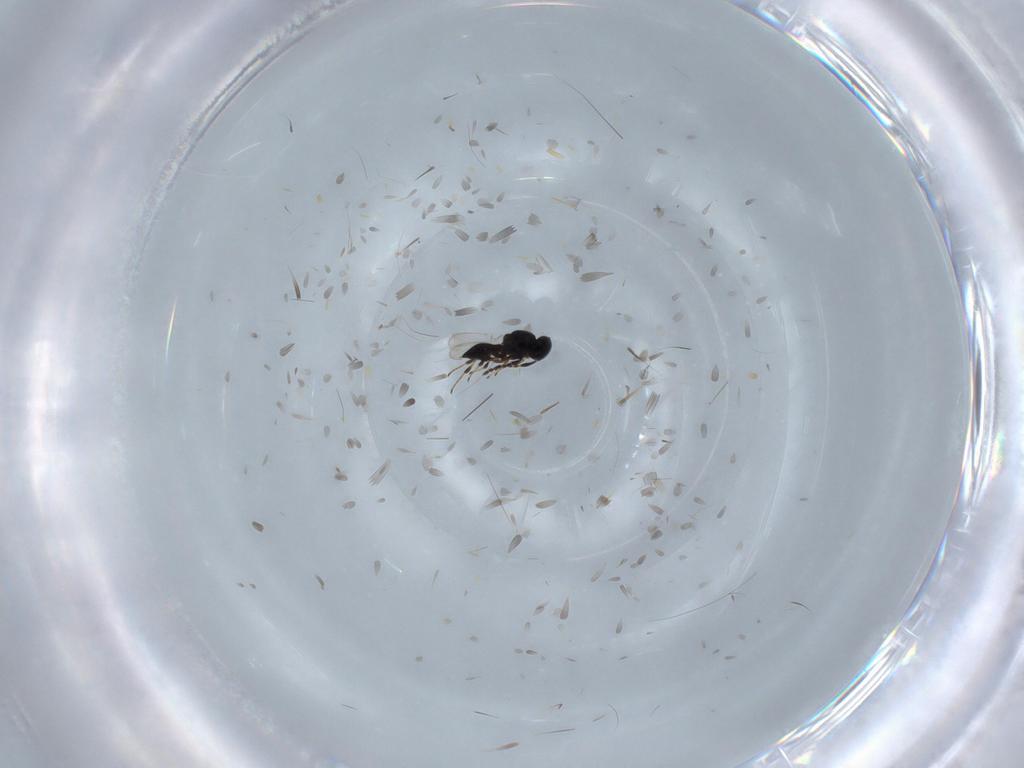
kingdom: Animalia
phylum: Arthropoda
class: Insecta
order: Hymenoptera
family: Platygastridae
